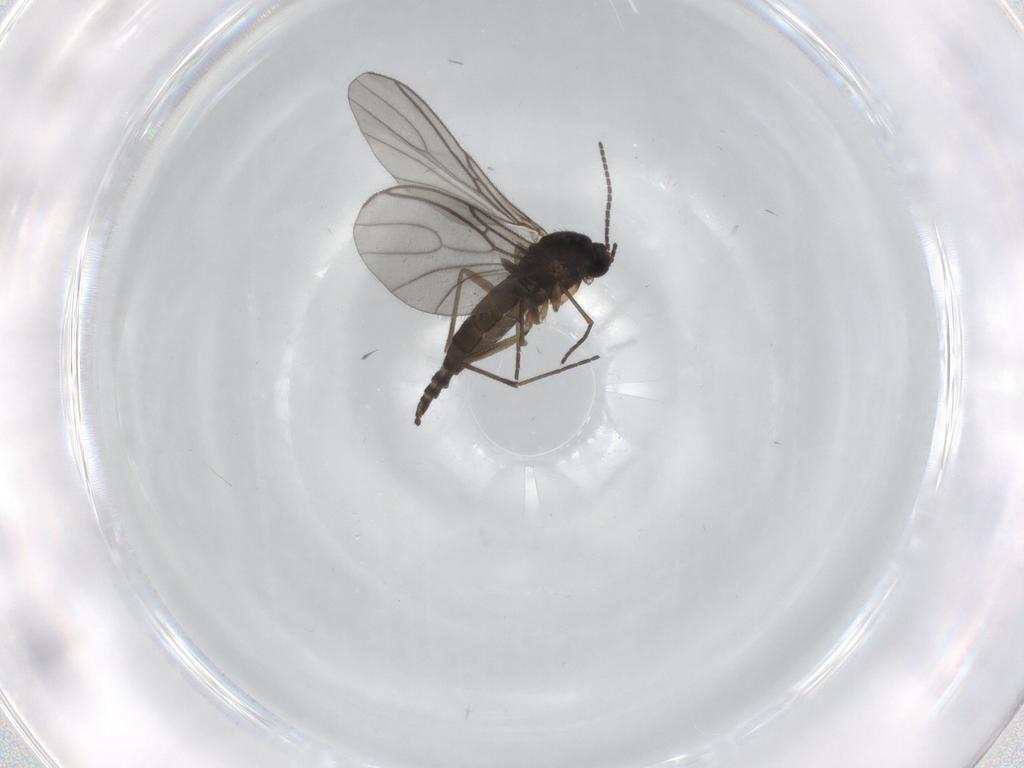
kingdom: Animalia
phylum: Arthropoda
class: Insecta
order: Diptera
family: Sciaridae
